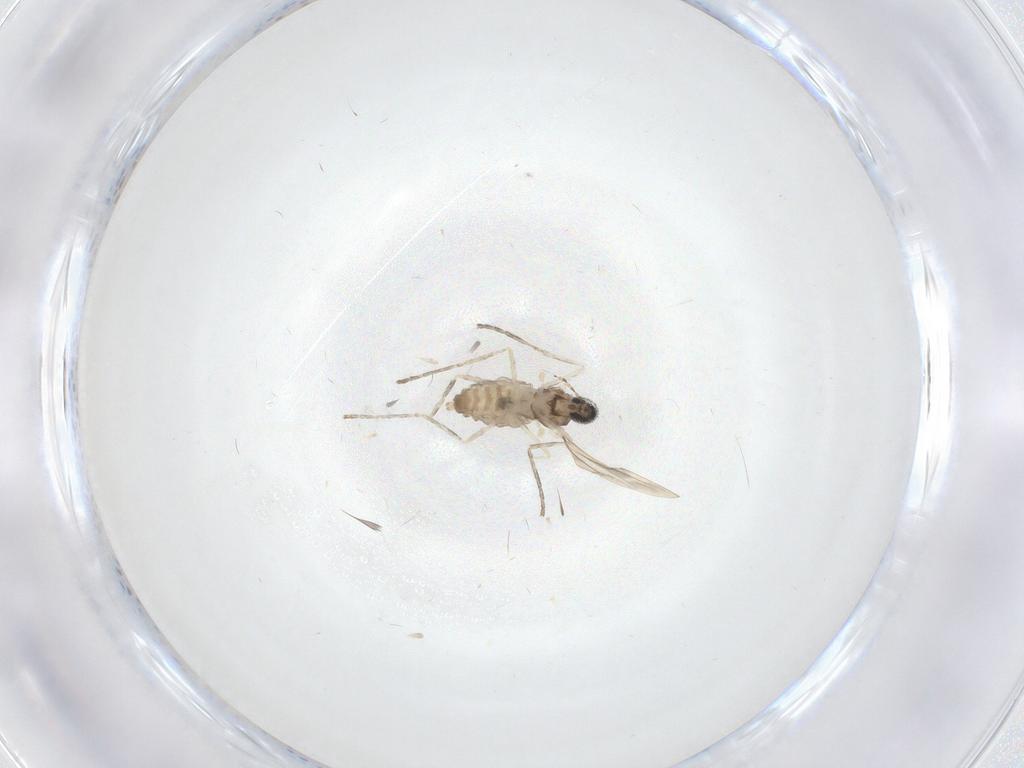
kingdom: Animalia
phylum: Arthropoda
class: Insecta
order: Diptera
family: Cecidomyiidae
